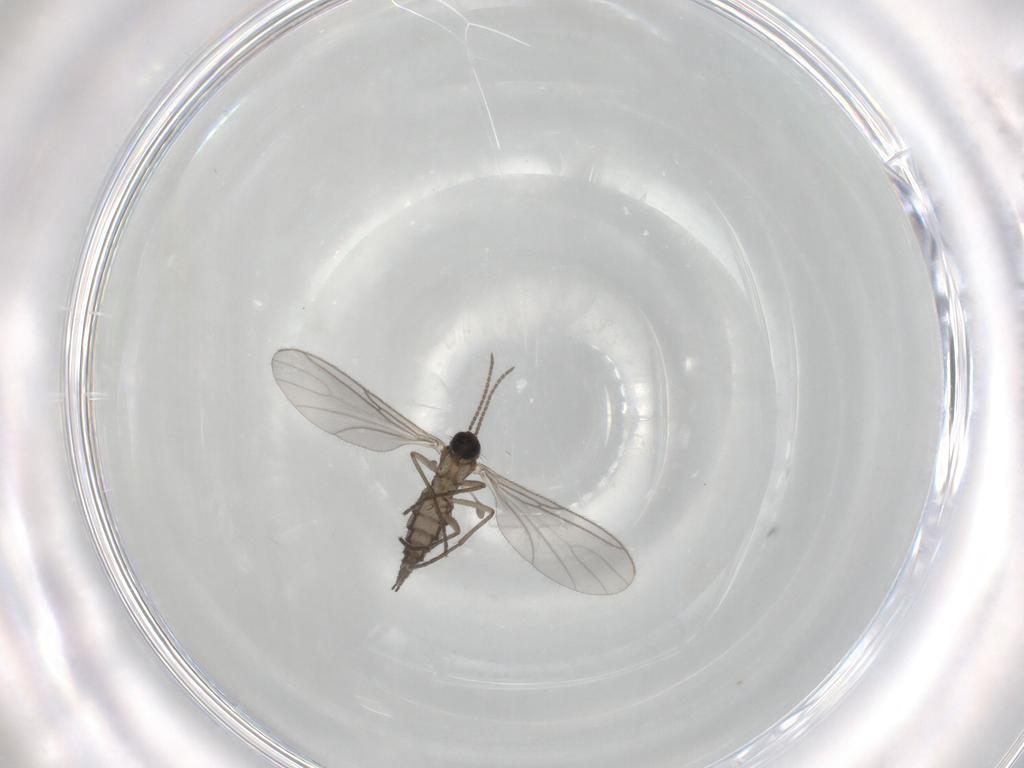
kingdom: Animalia
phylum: Arthropoda
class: Insecta
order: Diptera
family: Sciaridae
